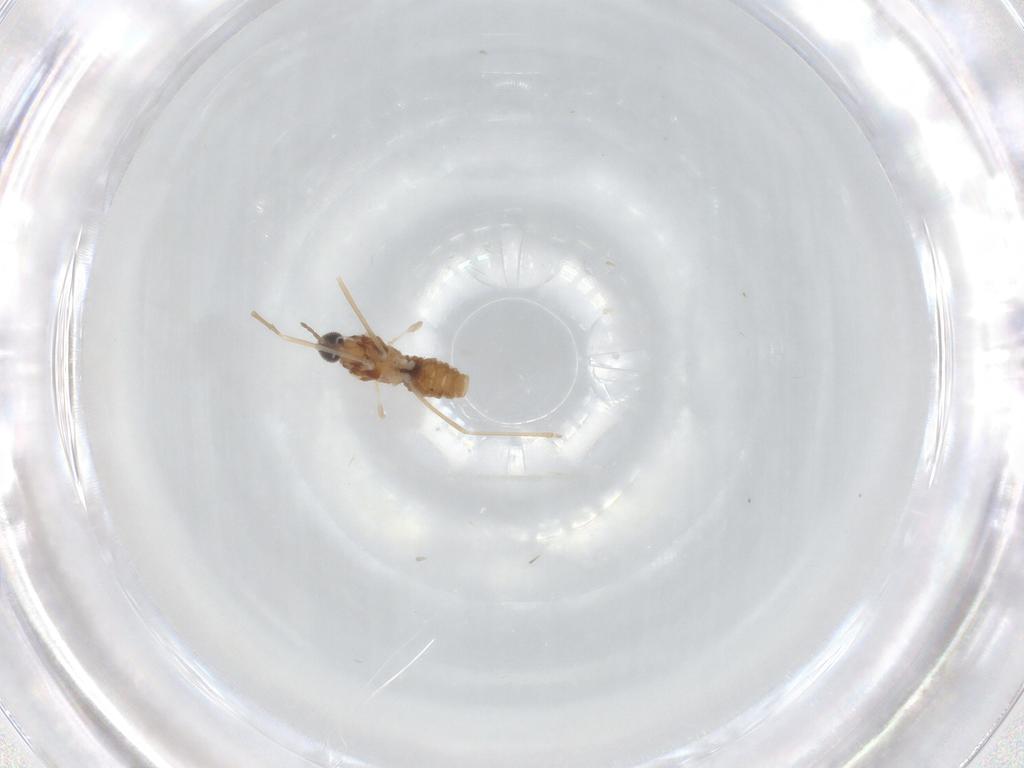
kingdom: Animalia
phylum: Arthropoda
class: Insecta
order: Diptera
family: Cecidomyiidae
